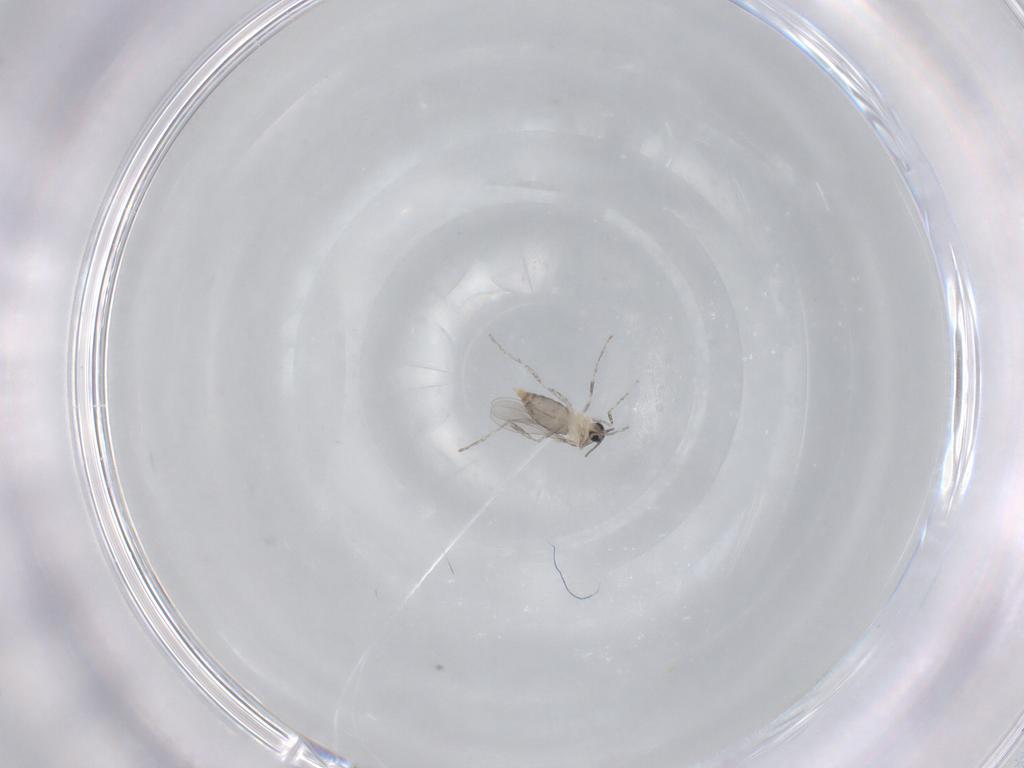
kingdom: Animalia
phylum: Arthropoda
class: Insecta
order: Diptera
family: Cecidomyiidae
